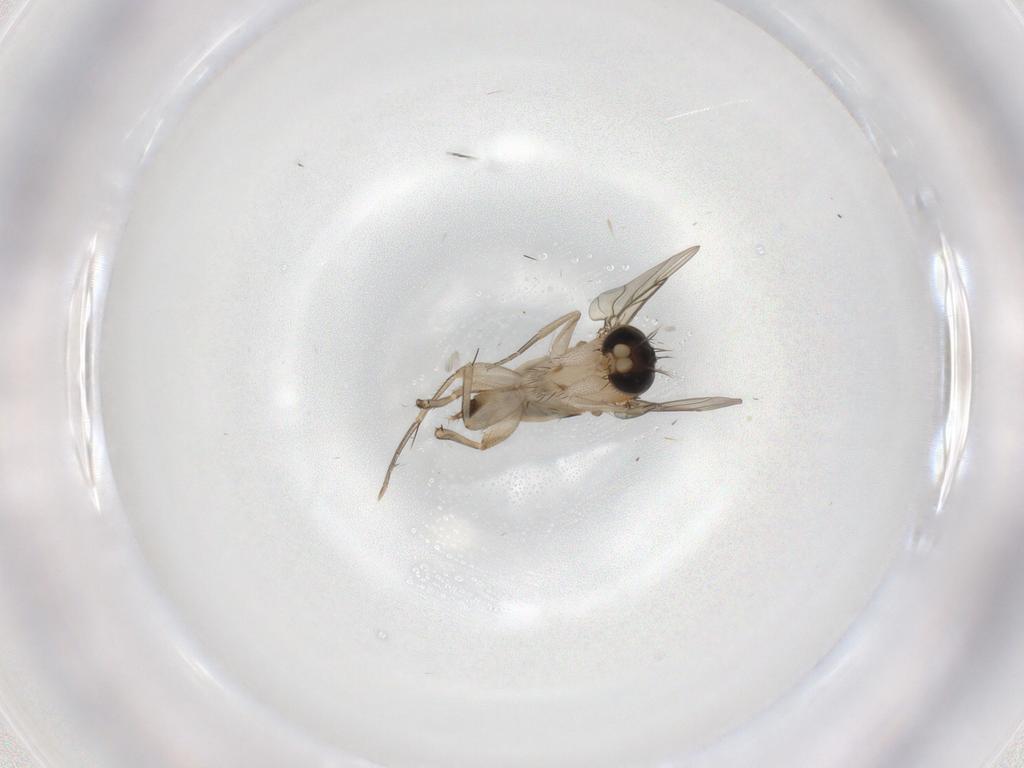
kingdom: Animalia
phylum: Arthropoda
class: Insecta
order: Diptera
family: Phoridae
